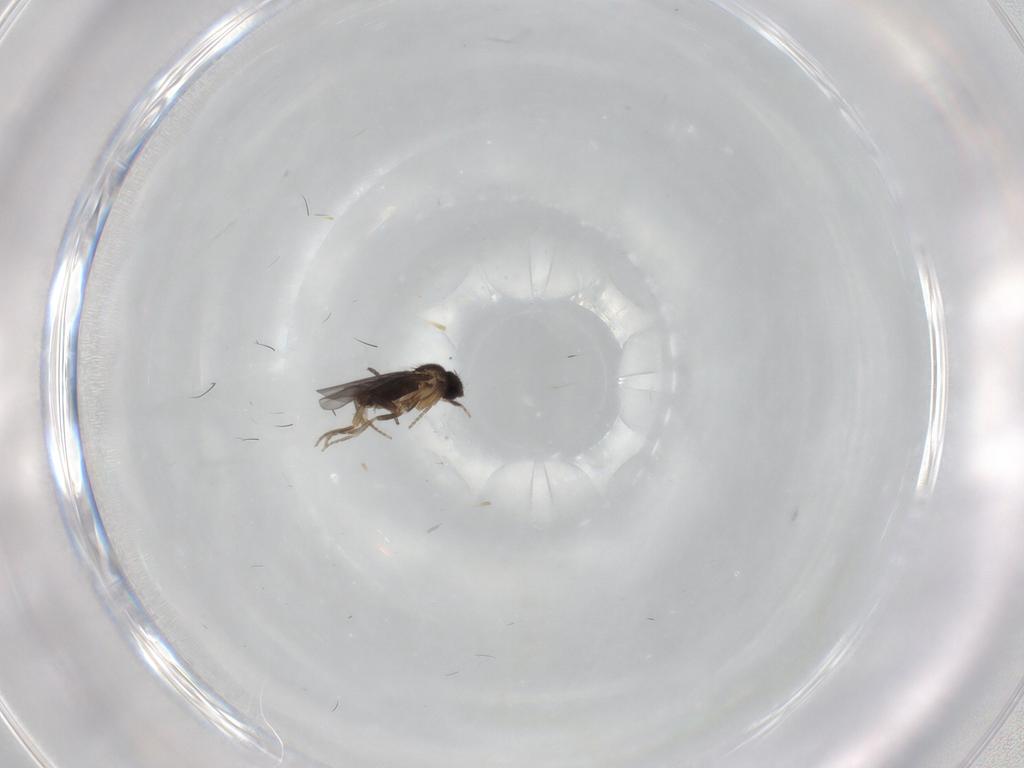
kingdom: Animalia
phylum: Arthropoda
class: Insecta
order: Diptera
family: Sciaridae
